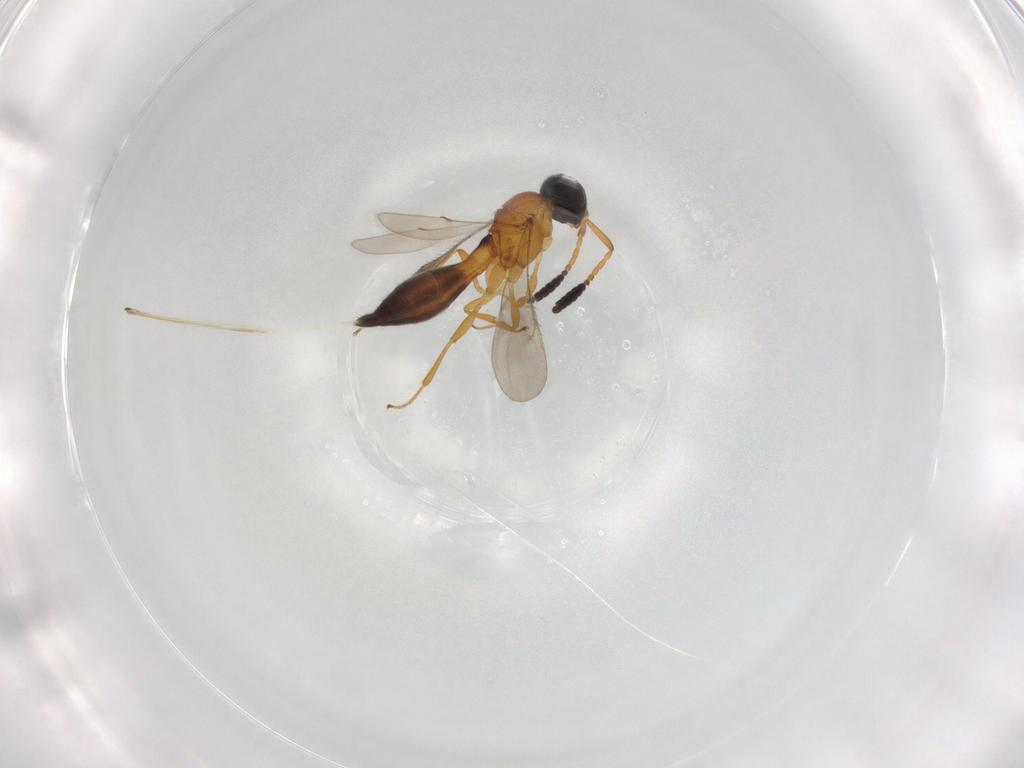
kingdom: Animalia
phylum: Arthropoda
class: Insecta
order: Hymenoptera
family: Scelionidae
